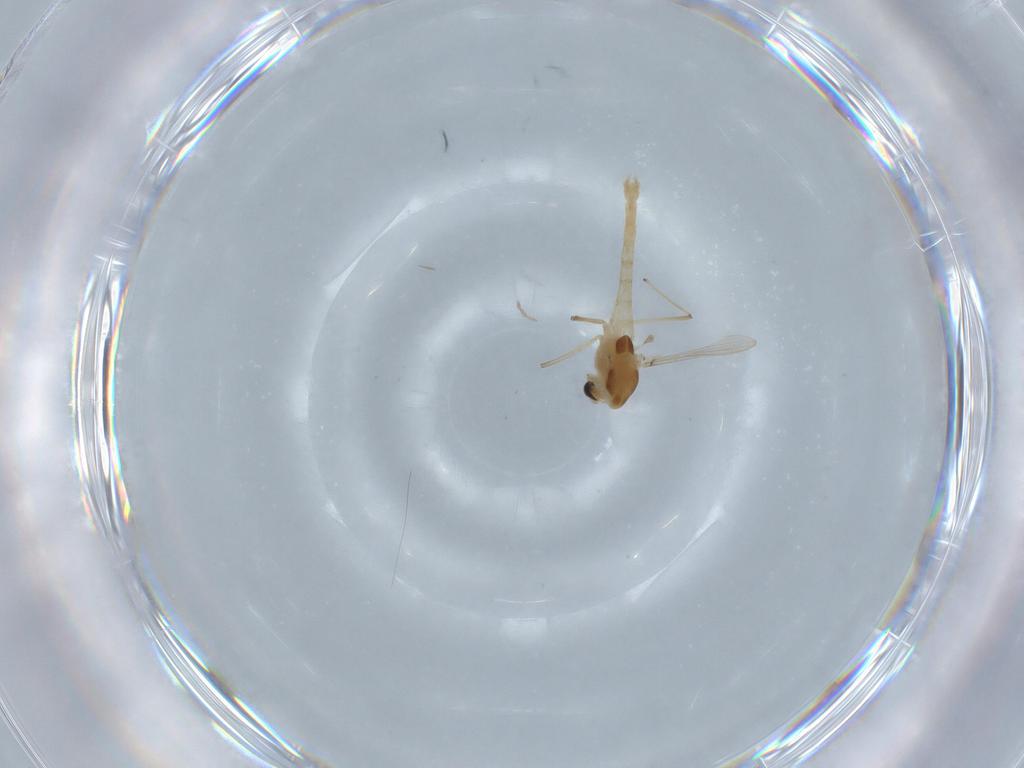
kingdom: Animalia
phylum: Arthropoda
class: Insecta
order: Diptera
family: Chironomidae
